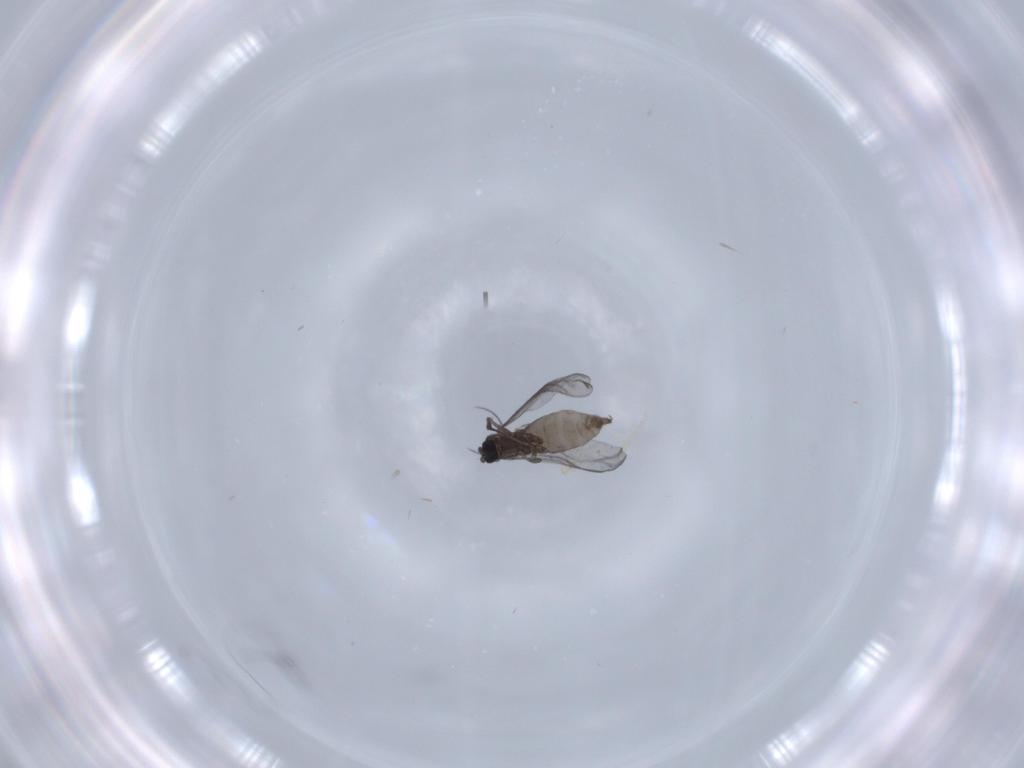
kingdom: Animalia
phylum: Arthropoda
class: Insecta
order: Diptera
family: Sciaridae
